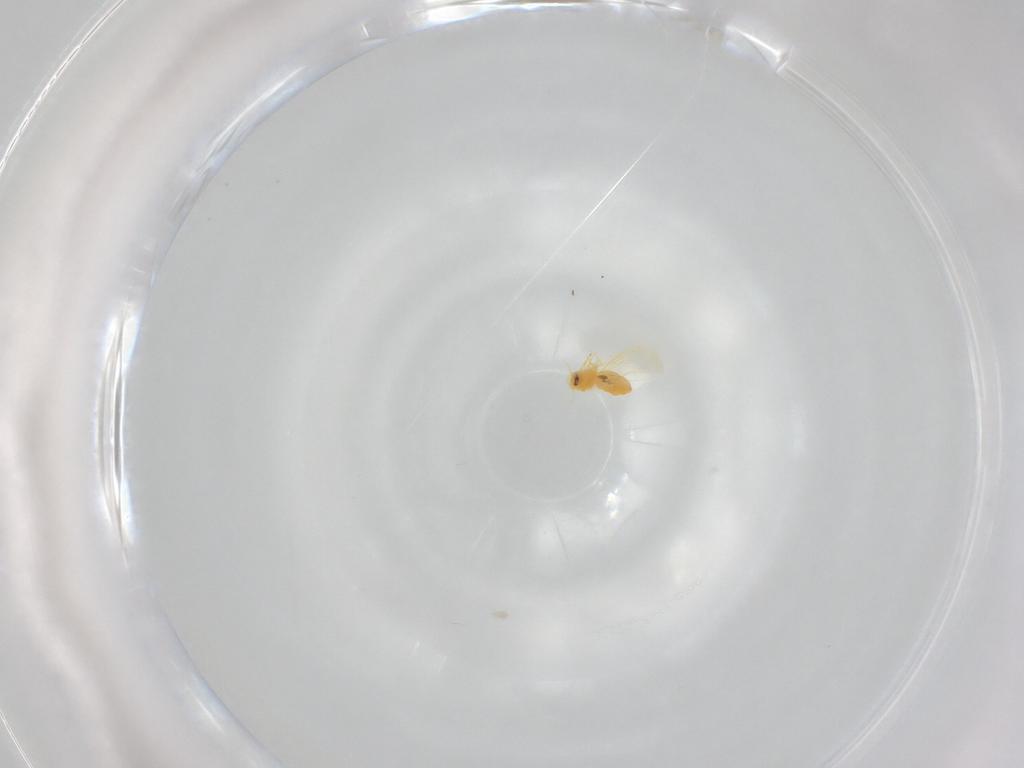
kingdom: Animalia
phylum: Arthropoda
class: Insecta
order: Hemiptera
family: Aleyrodidae
